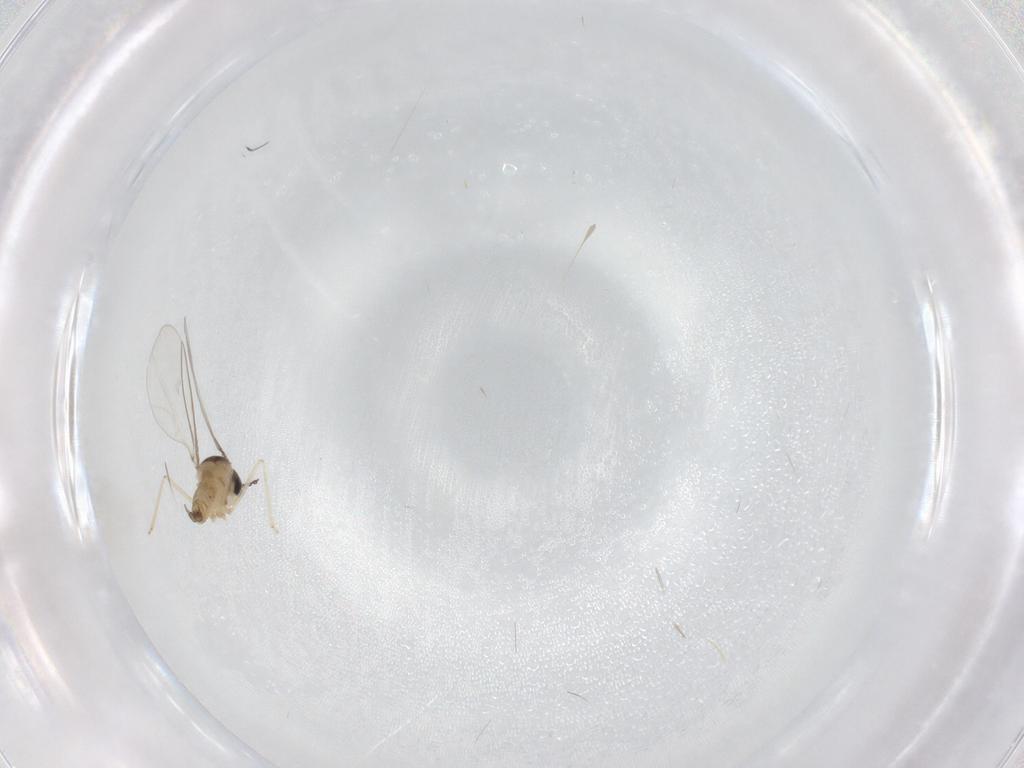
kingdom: Animalia
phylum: Arthropoda
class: Insecta
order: Diptera
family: Cecidomyiidae
